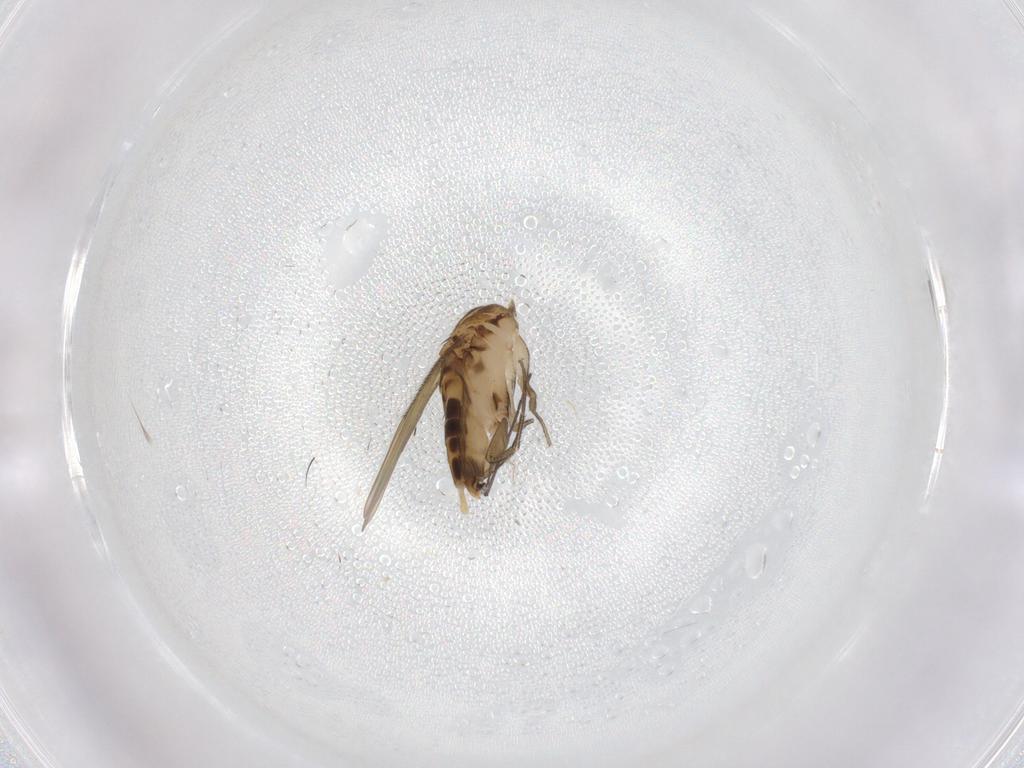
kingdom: Animalia
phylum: Arthropoda
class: Insecta
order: Diptera
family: Phoridae
